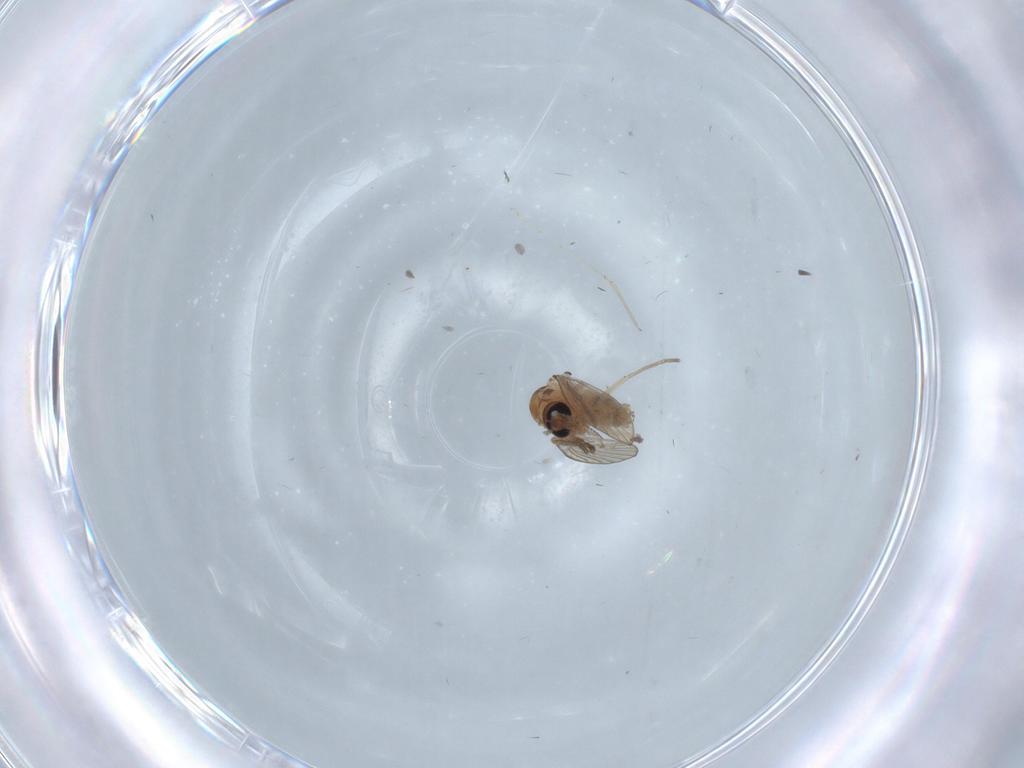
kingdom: Animalia
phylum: Arthropoda
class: Insecta
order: Diptera
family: Psychodidae
